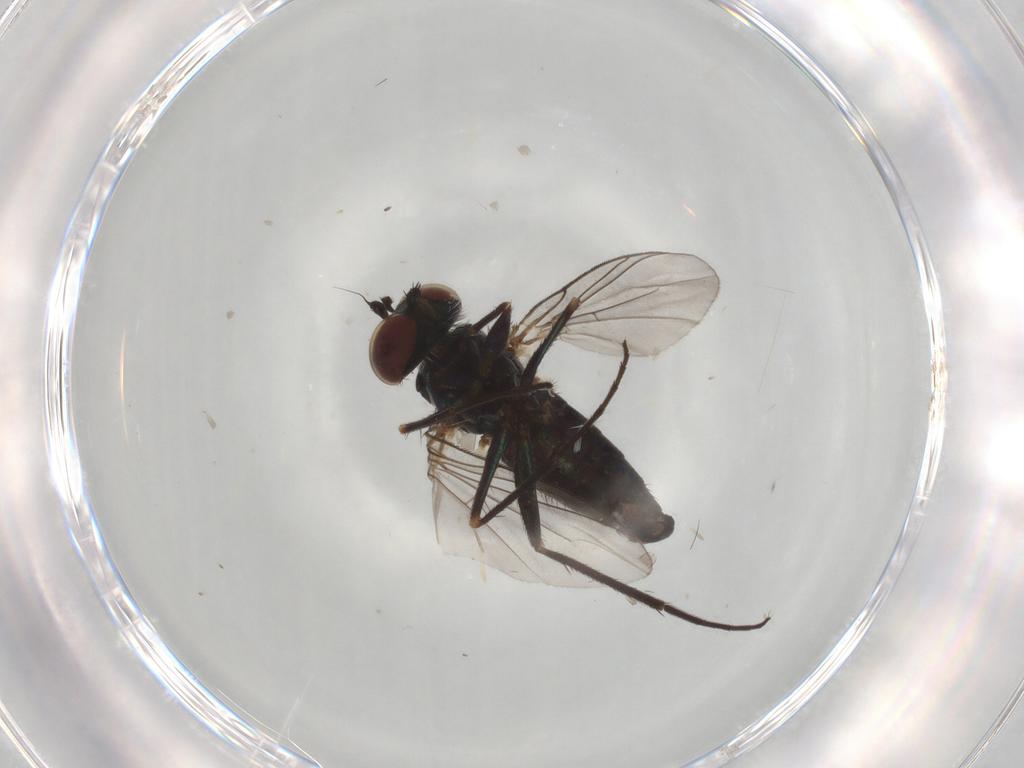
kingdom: Animalia
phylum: Arthropoda
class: Insecta
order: Diptera
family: Dolichopodidae
